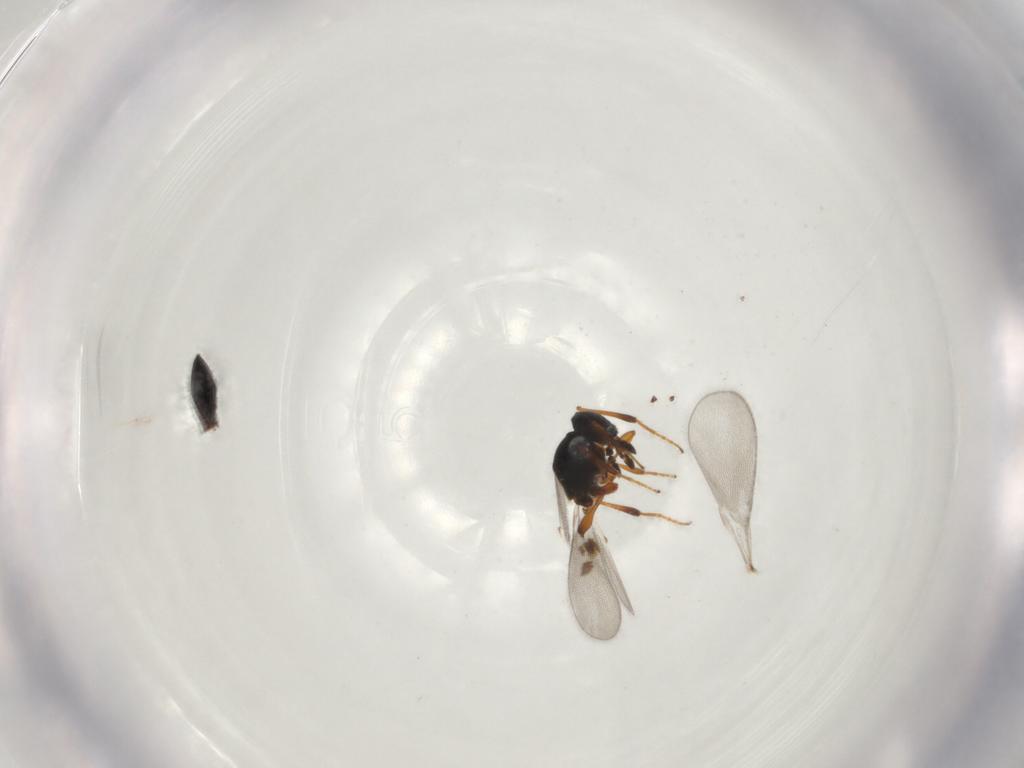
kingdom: Animalia
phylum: Arthropoda
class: Insecta
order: Hymenoptera
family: Platygastridae
